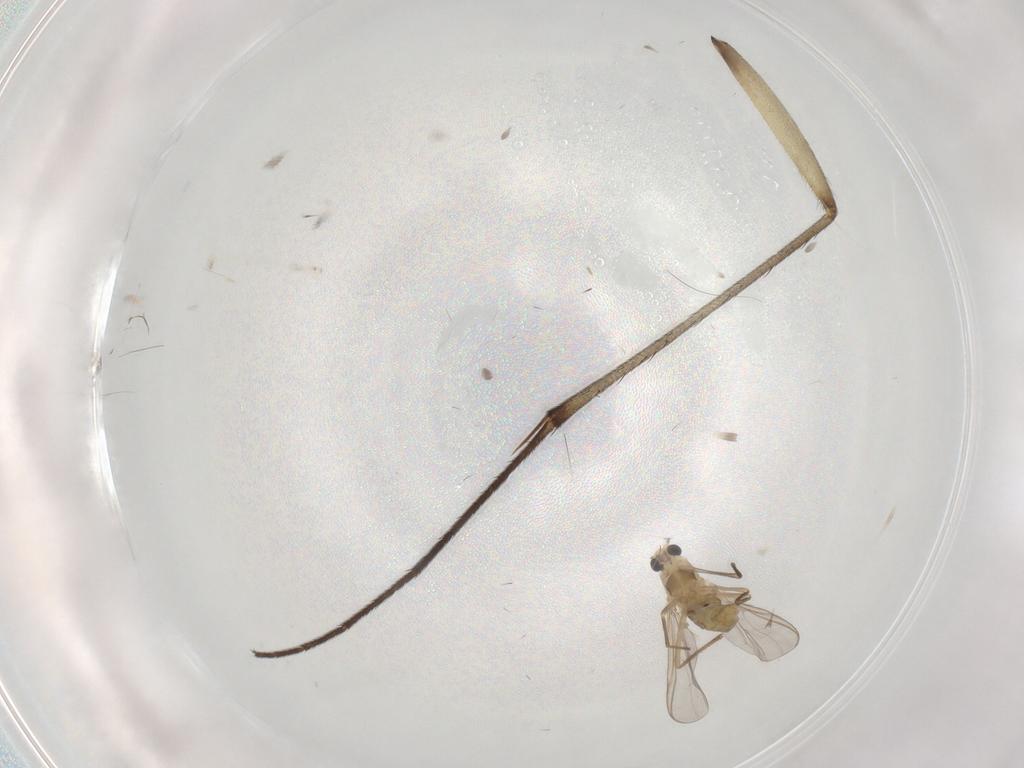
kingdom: Animalia
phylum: Arthropoda
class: Insecta
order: Diptera
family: Chironomidae
